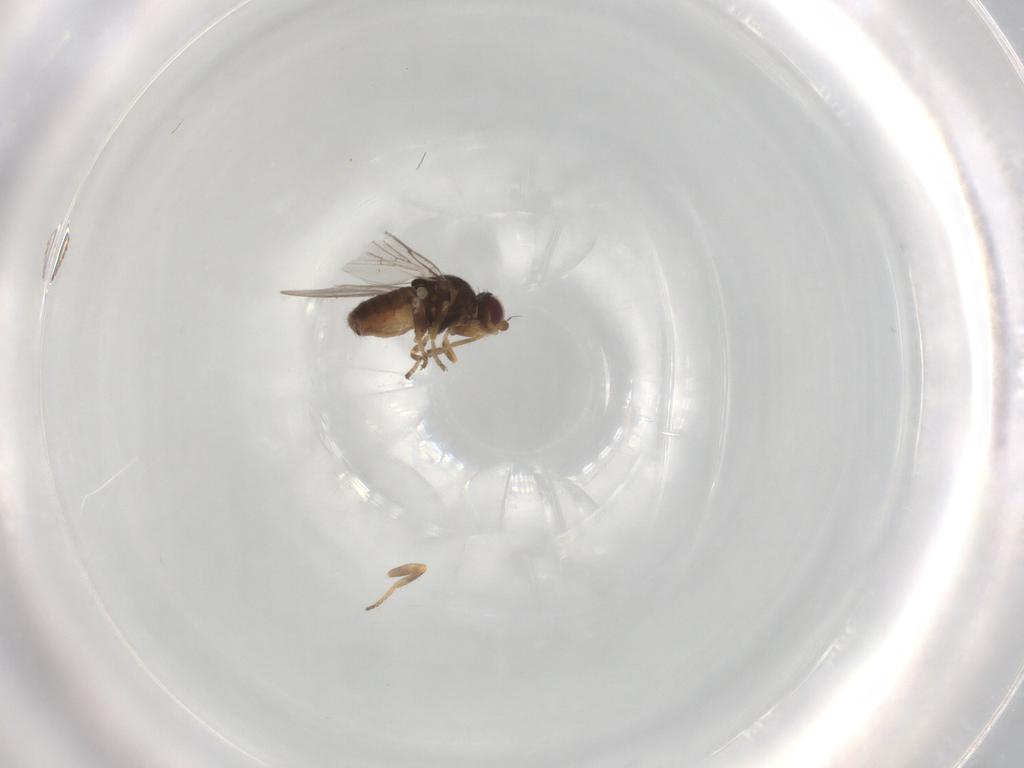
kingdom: Animalia
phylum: Arthropoda
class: Insecta
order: Diptera
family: Chloropidae
